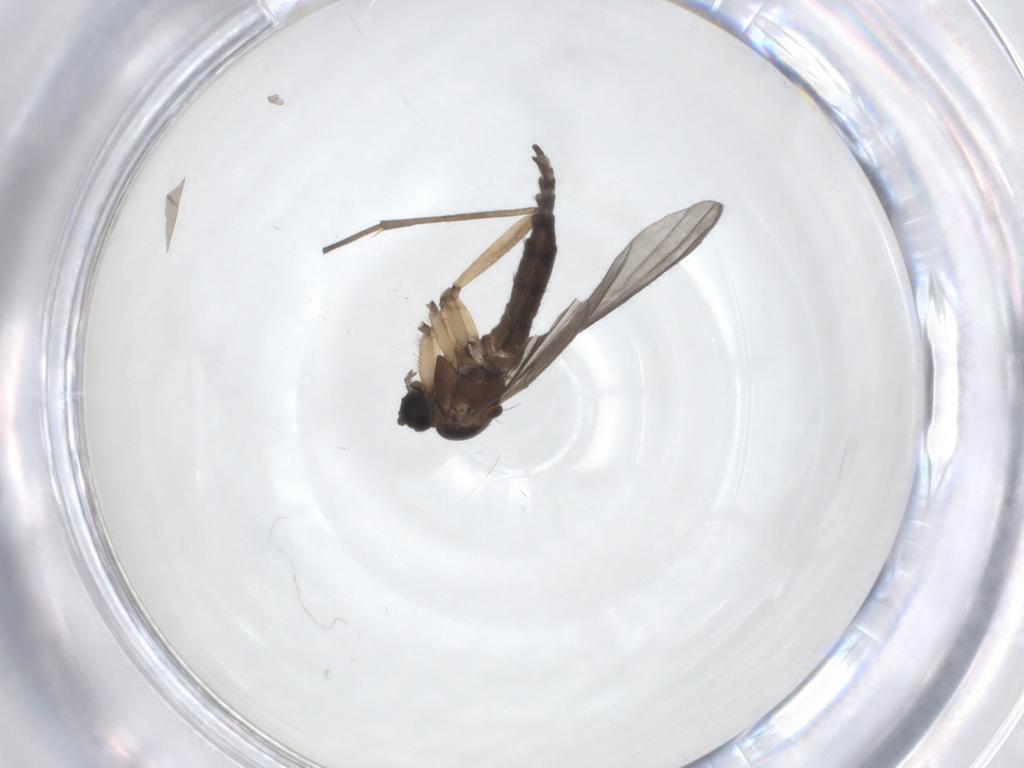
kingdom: Animalia
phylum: Arthropoda
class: Insecta
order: Diptera
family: Sciaridae
